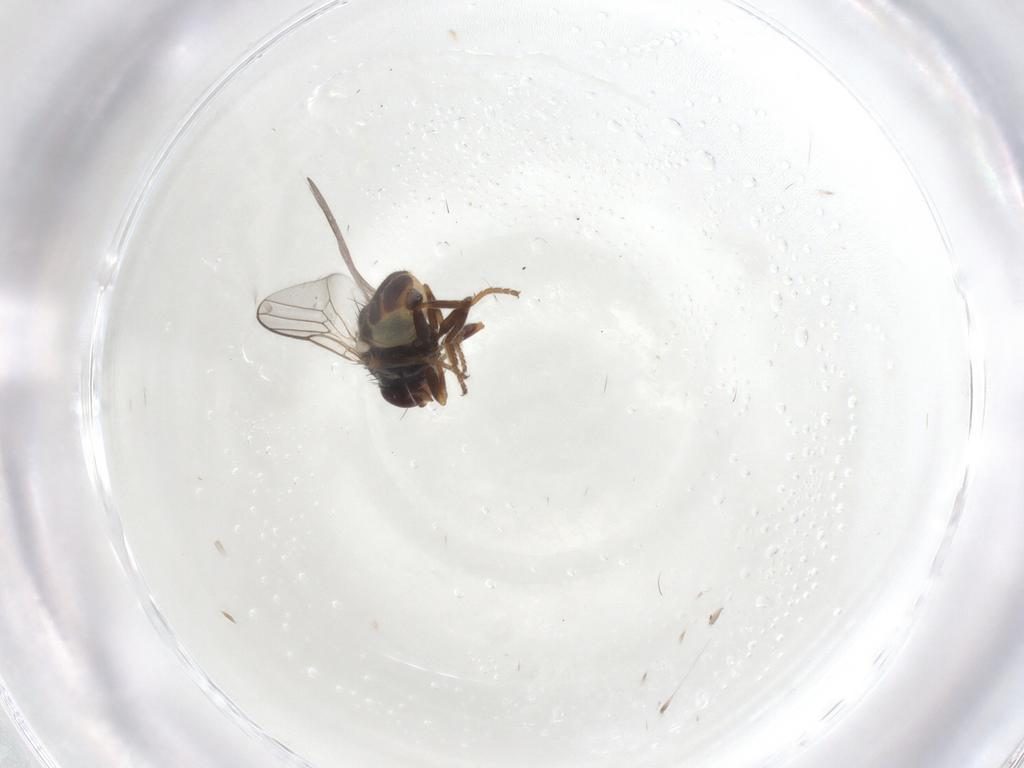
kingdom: Animalia
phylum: Arthropoda
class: Insecta
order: Diptera
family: Chloropidae
